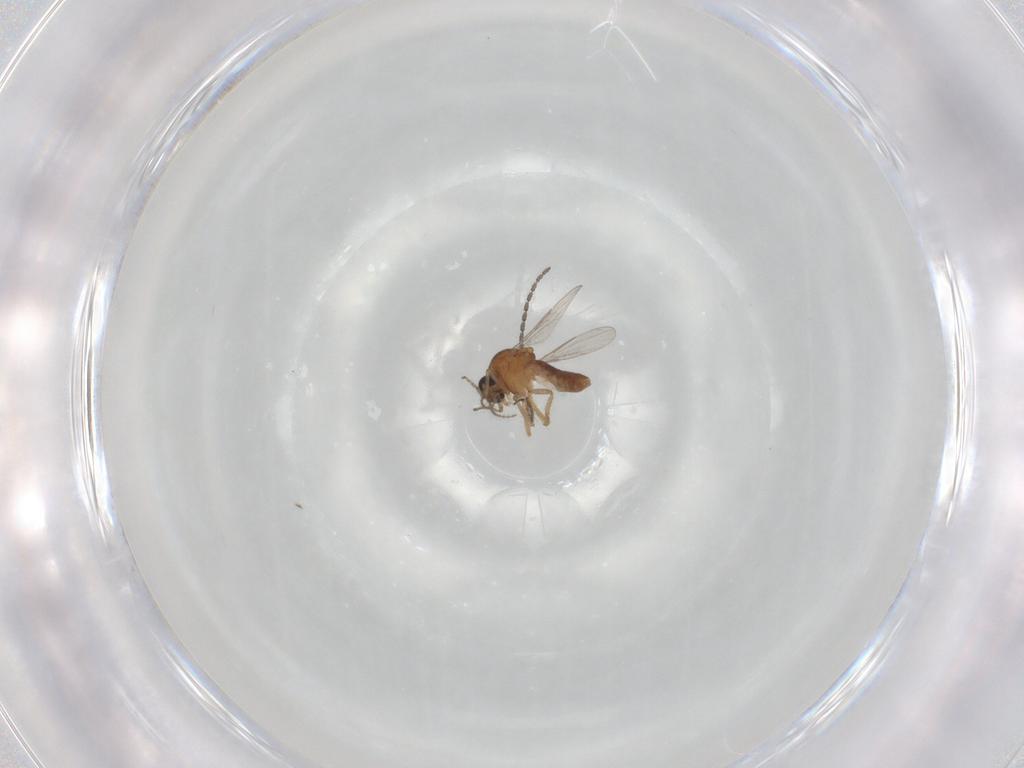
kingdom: Animalia
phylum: Arthropoda
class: Insecta
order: Diptera
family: Ceratopogonidae
